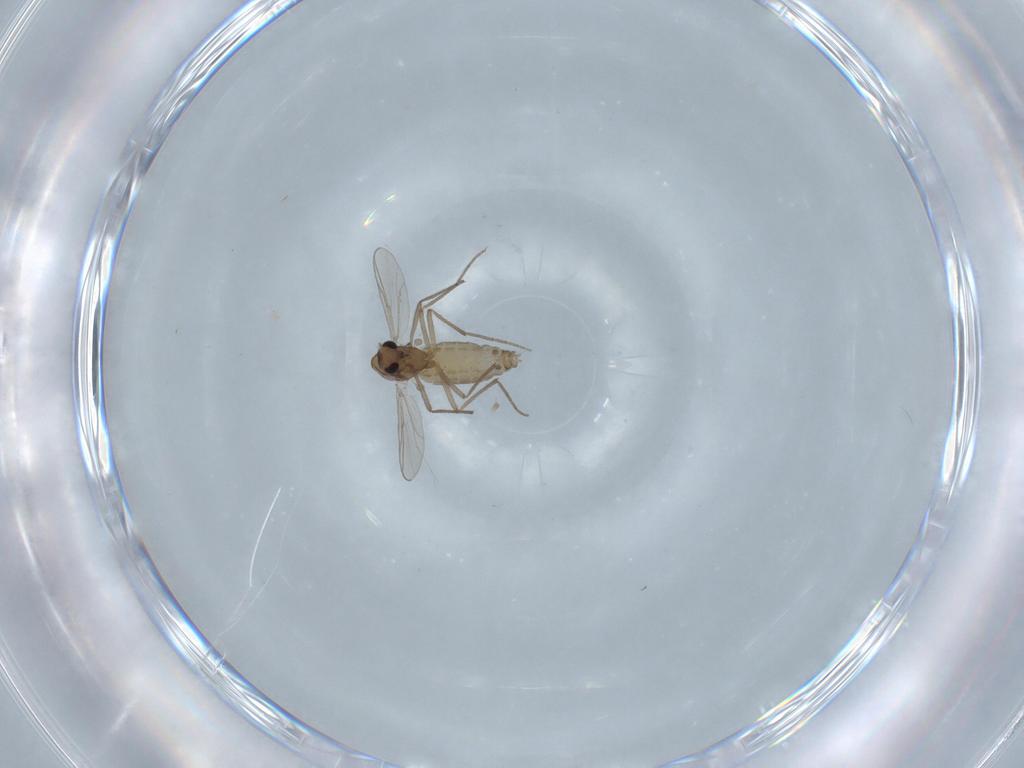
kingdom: Animalia
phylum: Arthropoda
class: Insecta
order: Diptera
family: Chironomidae
